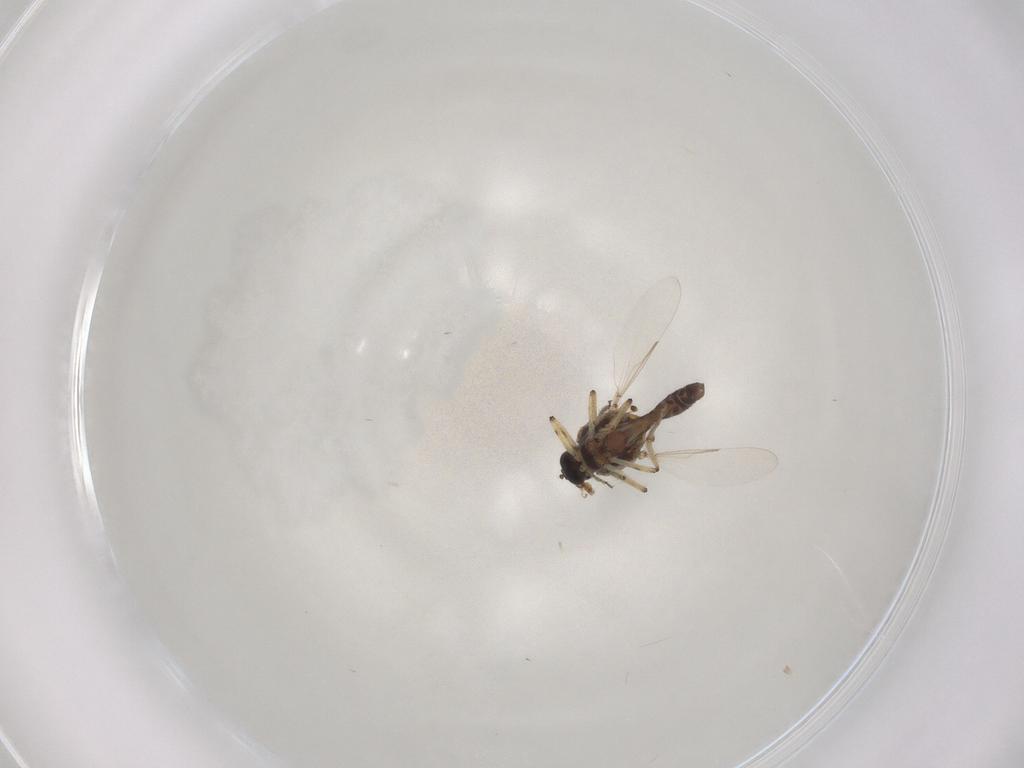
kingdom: Animalia
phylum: Arthropoda
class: Insecta
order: Diptera
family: Ceratopogonidae
